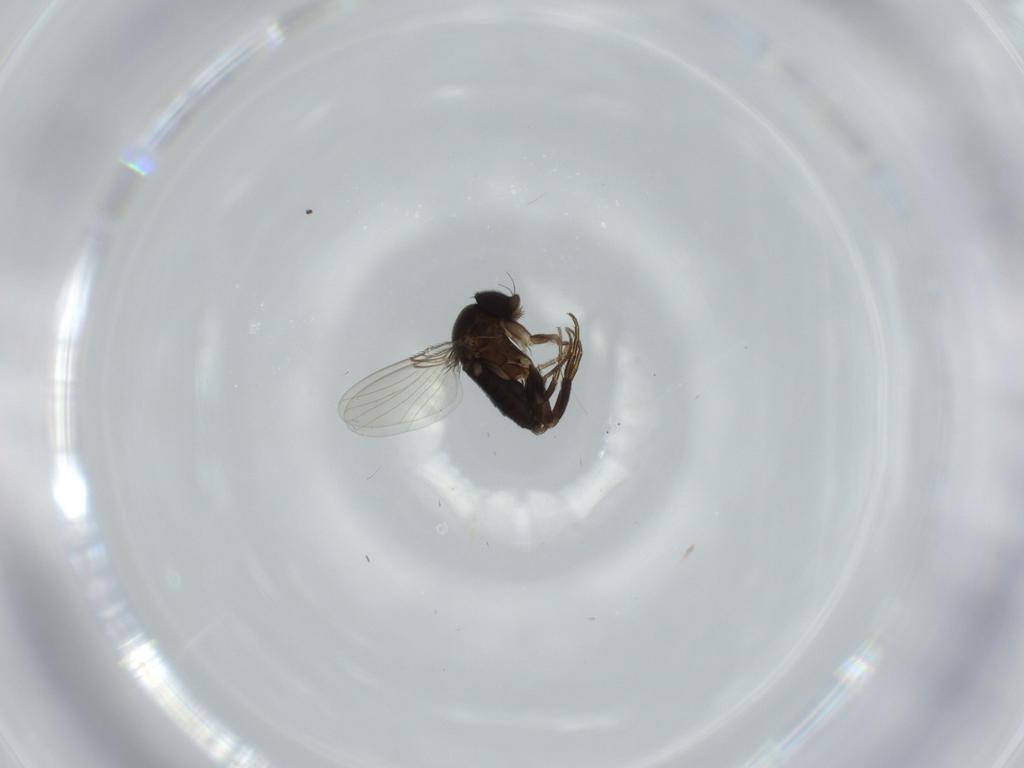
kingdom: Animalia
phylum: Arthropoda
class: Insecta
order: Diptera
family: Phoridae
